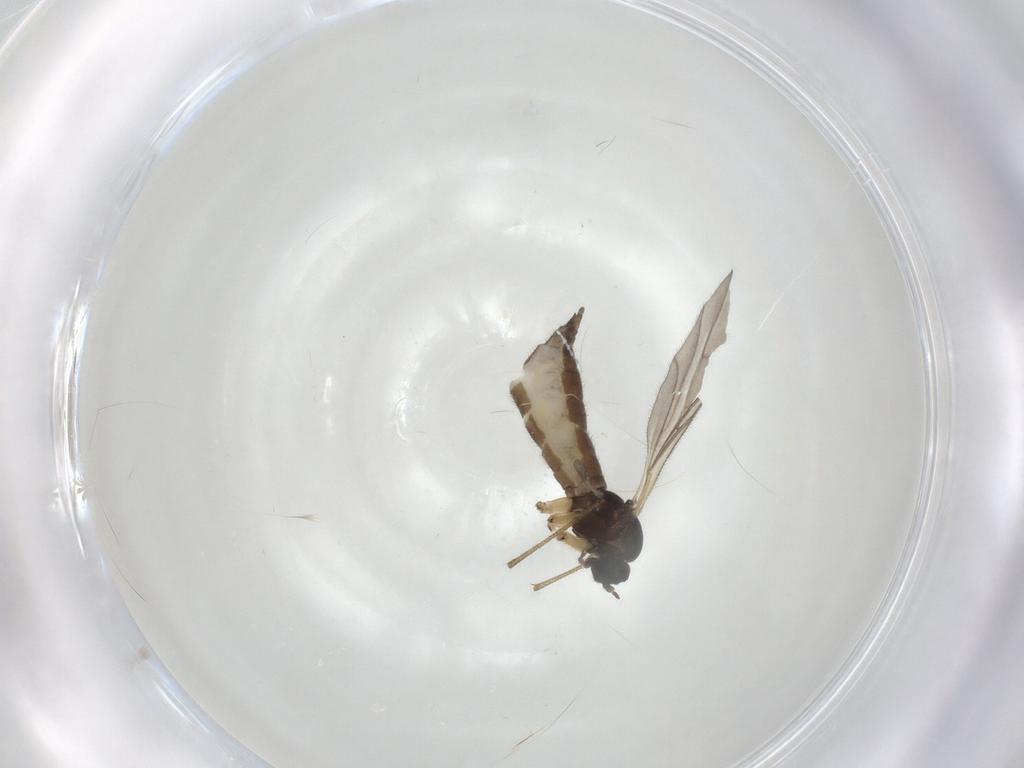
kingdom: Animalia
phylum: Arthropoda
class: Insecta
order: Diptera
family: Sciaridae
